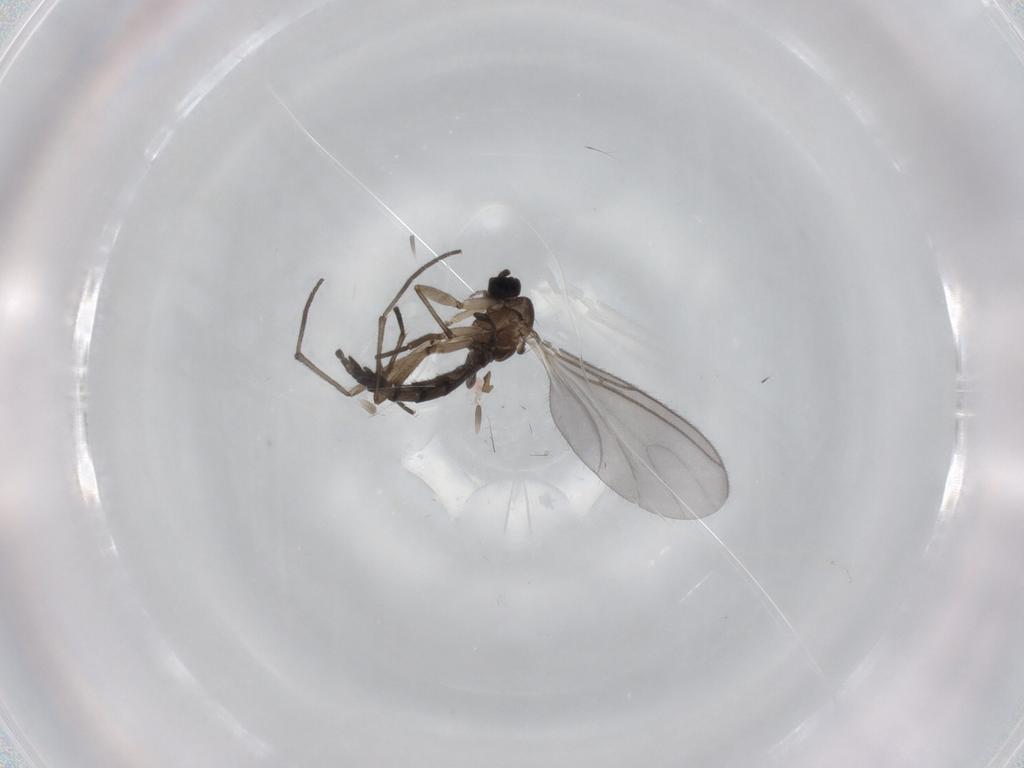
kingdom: Animalia
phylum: Arthropoda
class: Insecta
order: Diptera
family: Sciaridae
